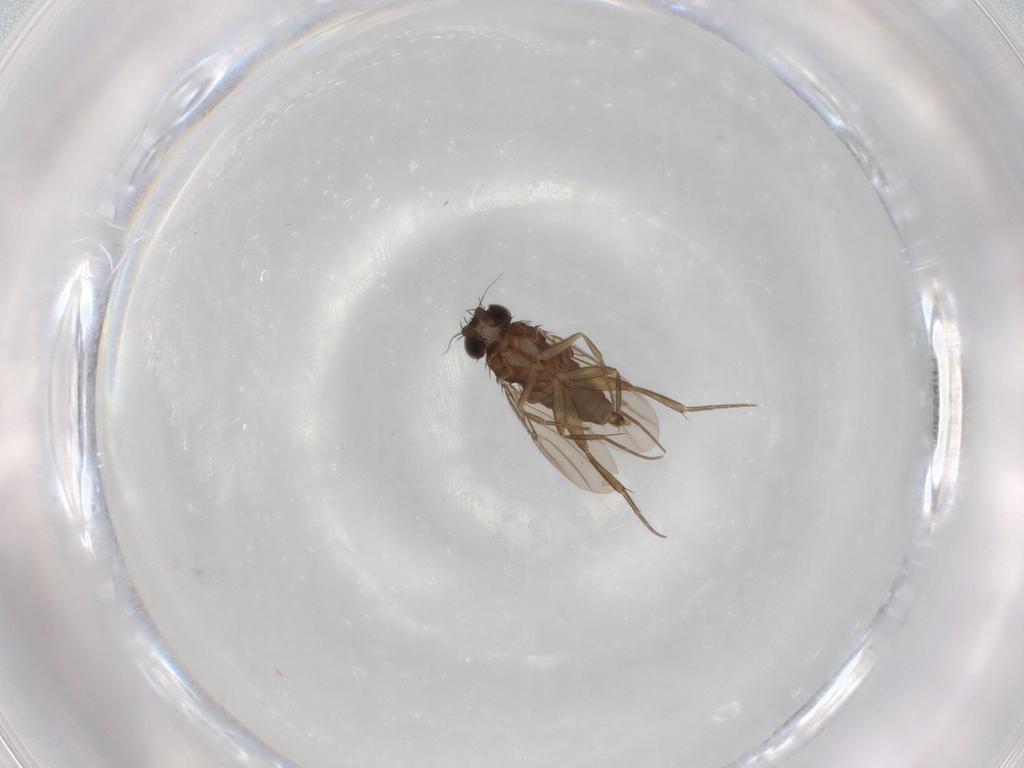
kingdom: Animalia
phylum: Arthropoda
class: Insecta
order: Diptera
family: Phoridae
